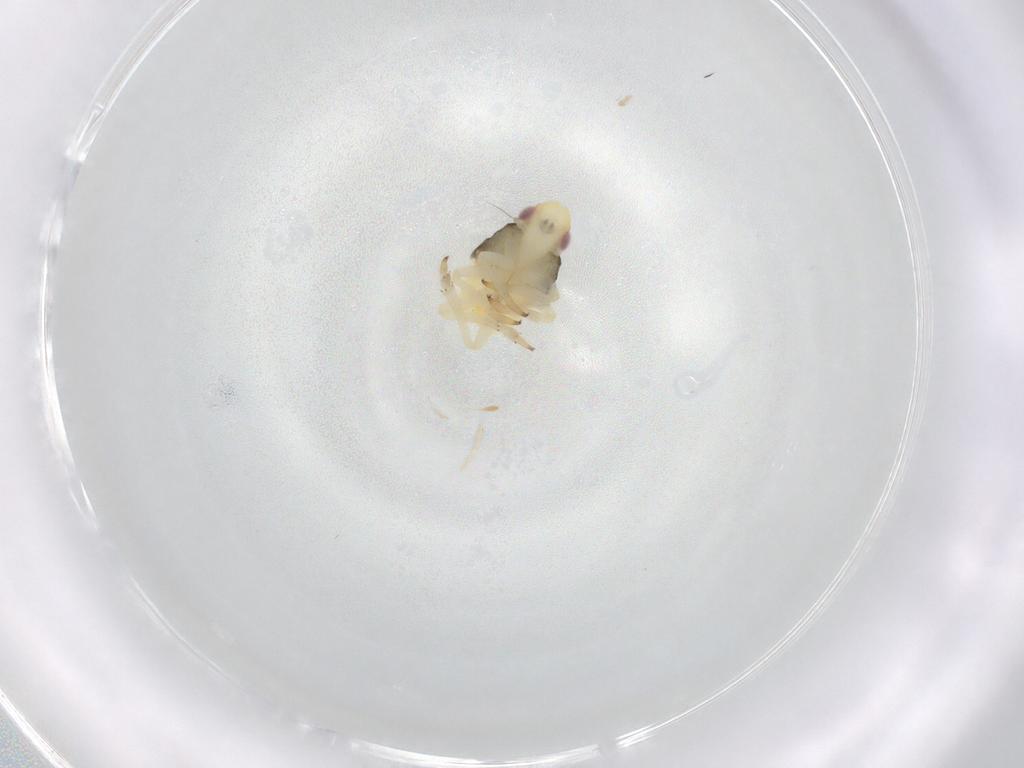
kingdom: Animalia
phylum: Arthropoda
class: Insecta
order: Hemiptera
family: Caliscelidae
